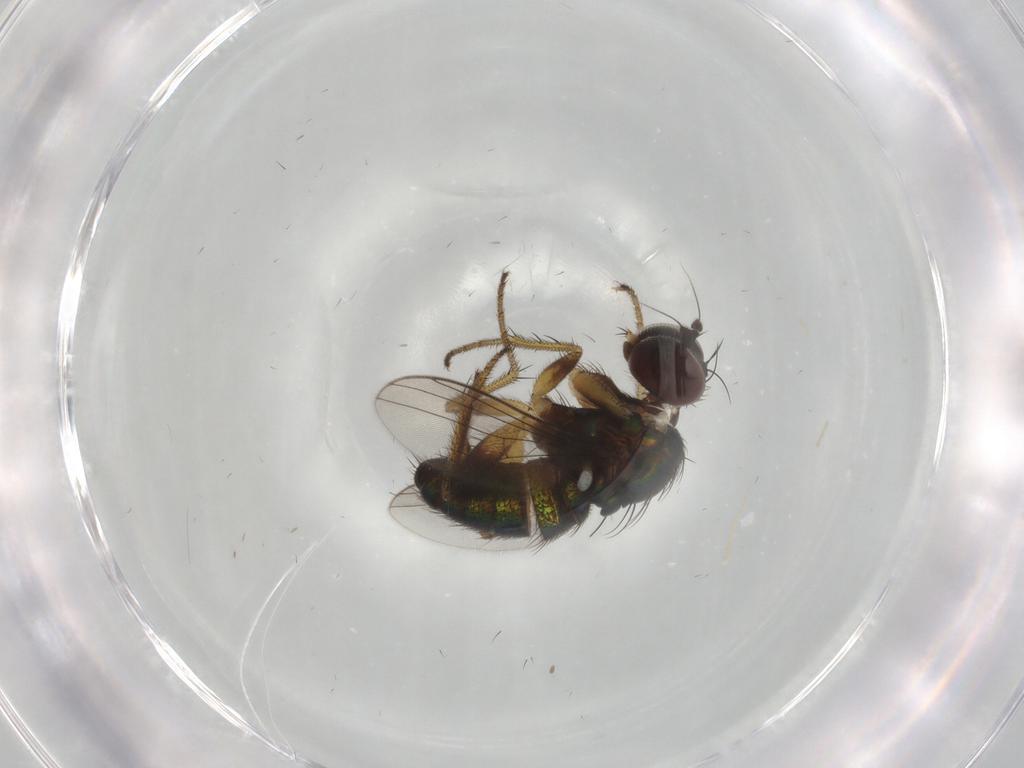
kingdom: Animalia
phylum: Arthropoda
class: Insecta
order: Diptera
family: Dolichopodidae
